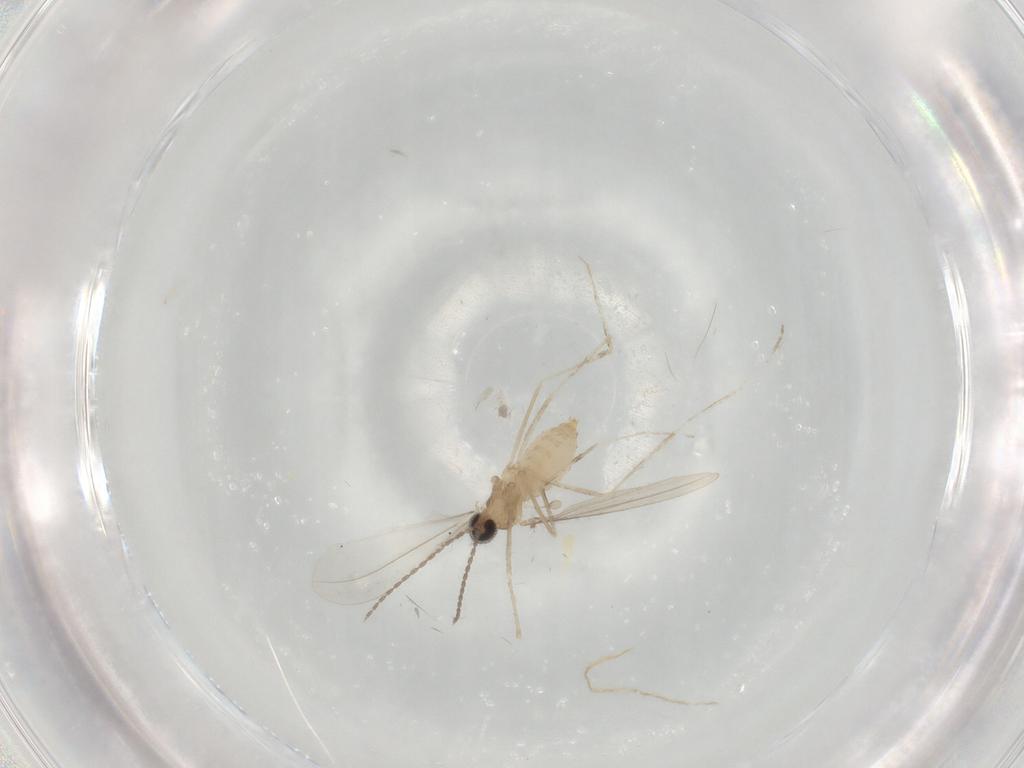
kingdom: Animalia
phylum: Arthropoda
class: Insecta
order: Diptera
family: Cecidomyiidae
